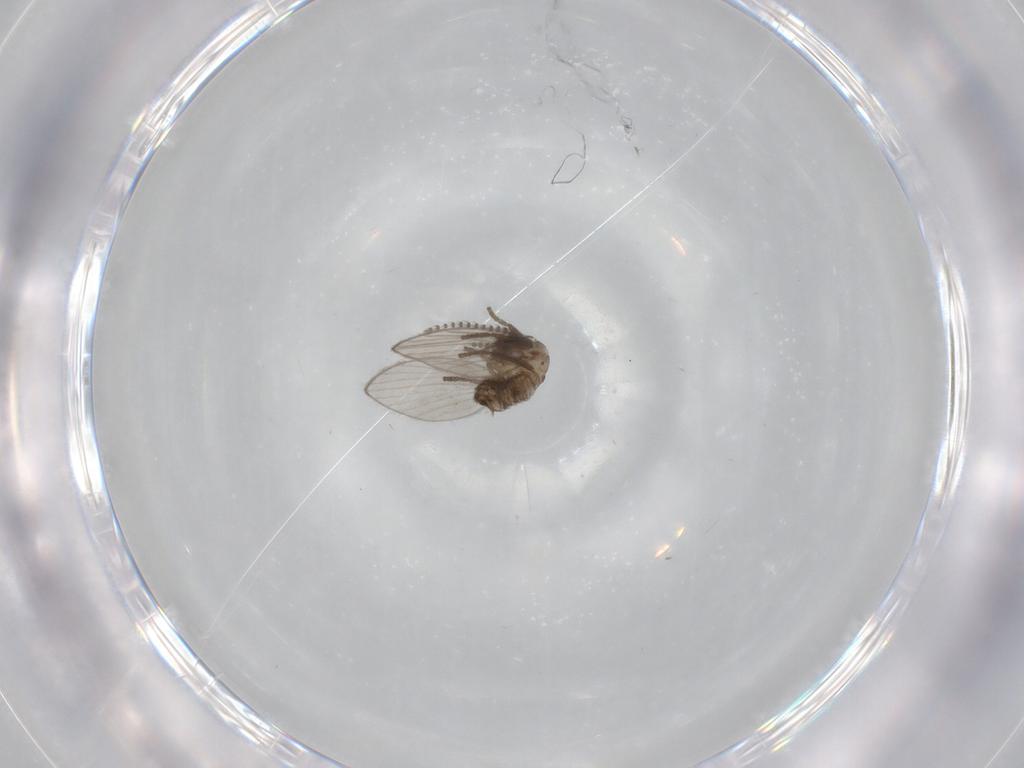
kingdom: Animalia
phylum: Arthropoda
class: Insecta
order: Diptera
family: Psychodidae
